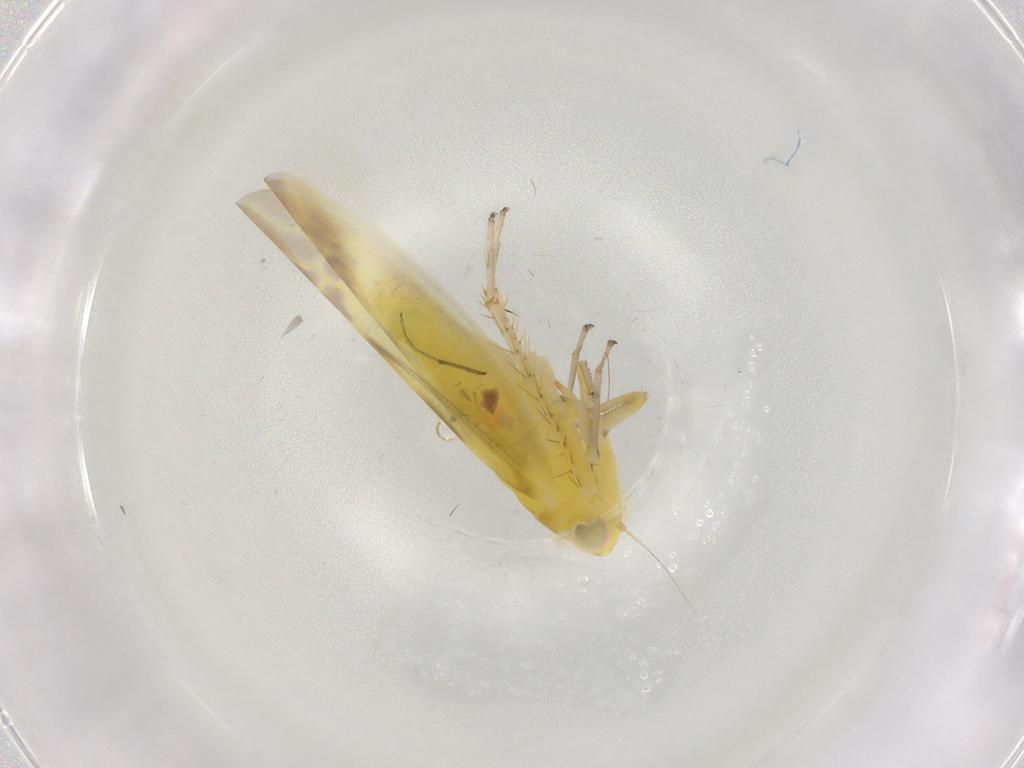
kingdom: Animalia
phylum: Arthropoda
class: Insecta
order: Hemiptera
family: Cicadellidae
